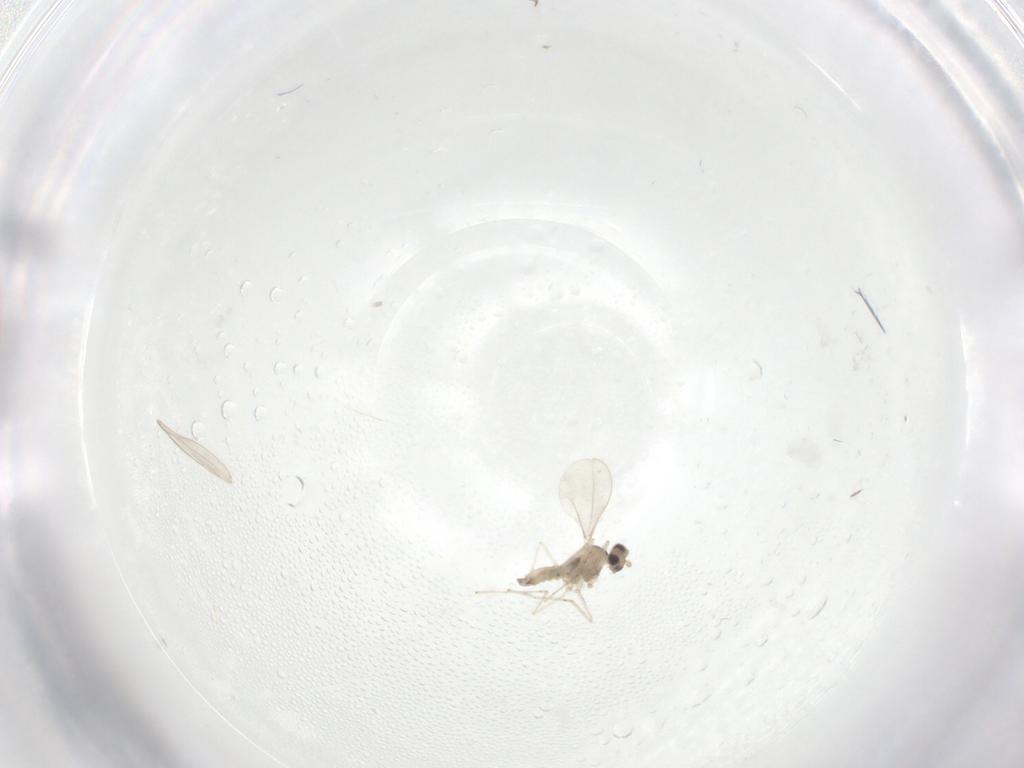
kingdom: Animalia
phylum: Arthropoda
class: Insecta
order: Diptera
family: Cecidomyiidae
